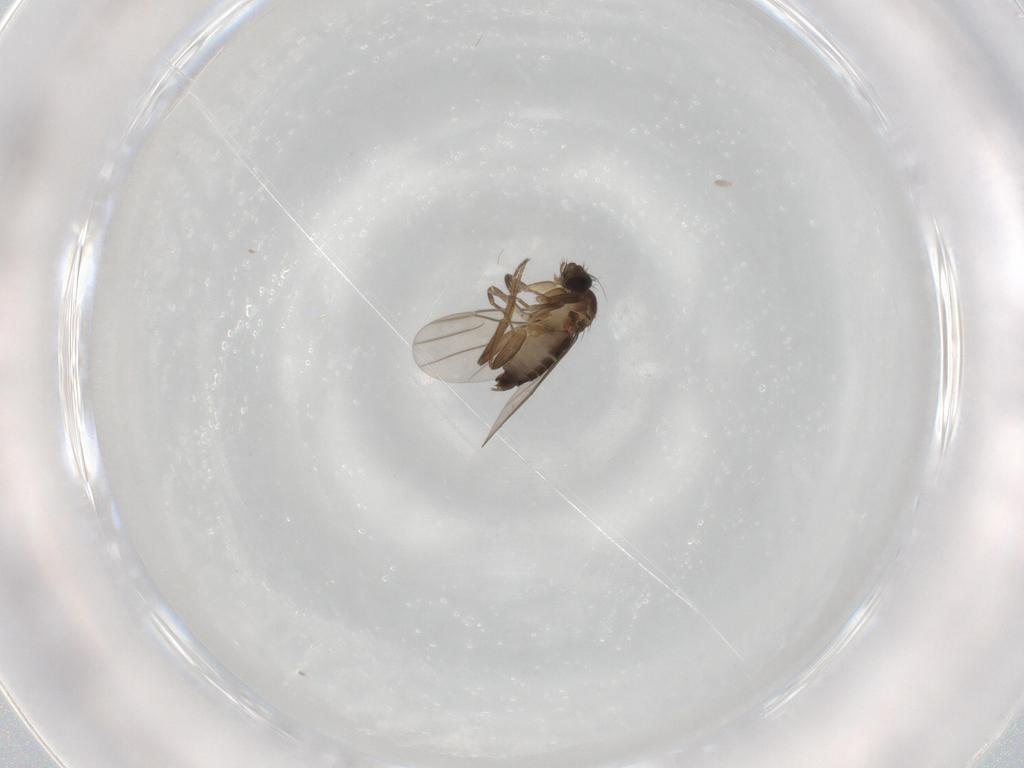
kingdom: Animalia
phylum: Arthropoda
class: Insecta
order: Diptera
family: Phoridae
